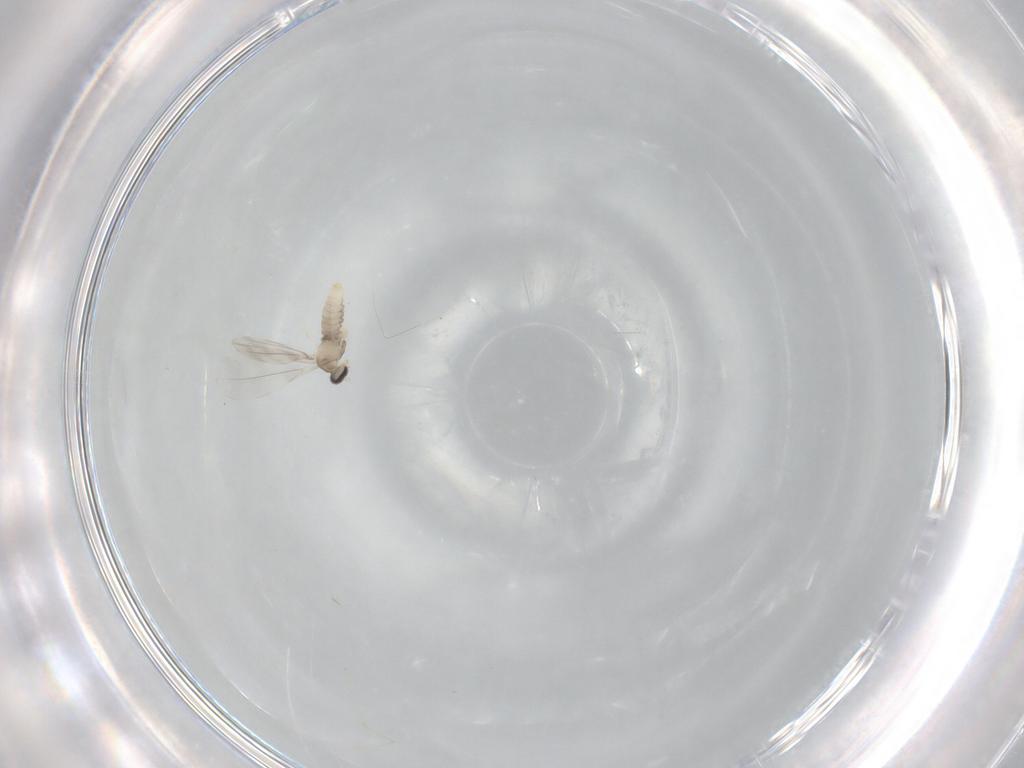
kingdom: Animalia
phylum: Arthropoda
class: Insecta
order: Diptera
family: Cecidomyiidae
